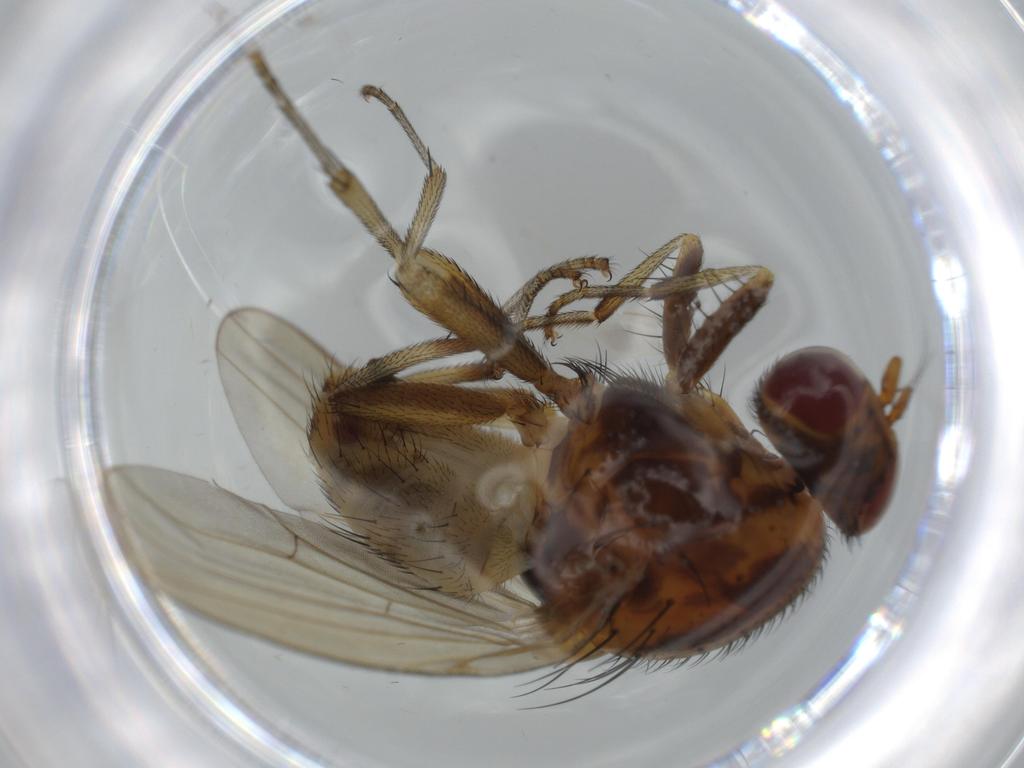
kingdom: Animalia
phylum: Arthropoda
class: Insecta
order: Diptera
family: Chironomidae
